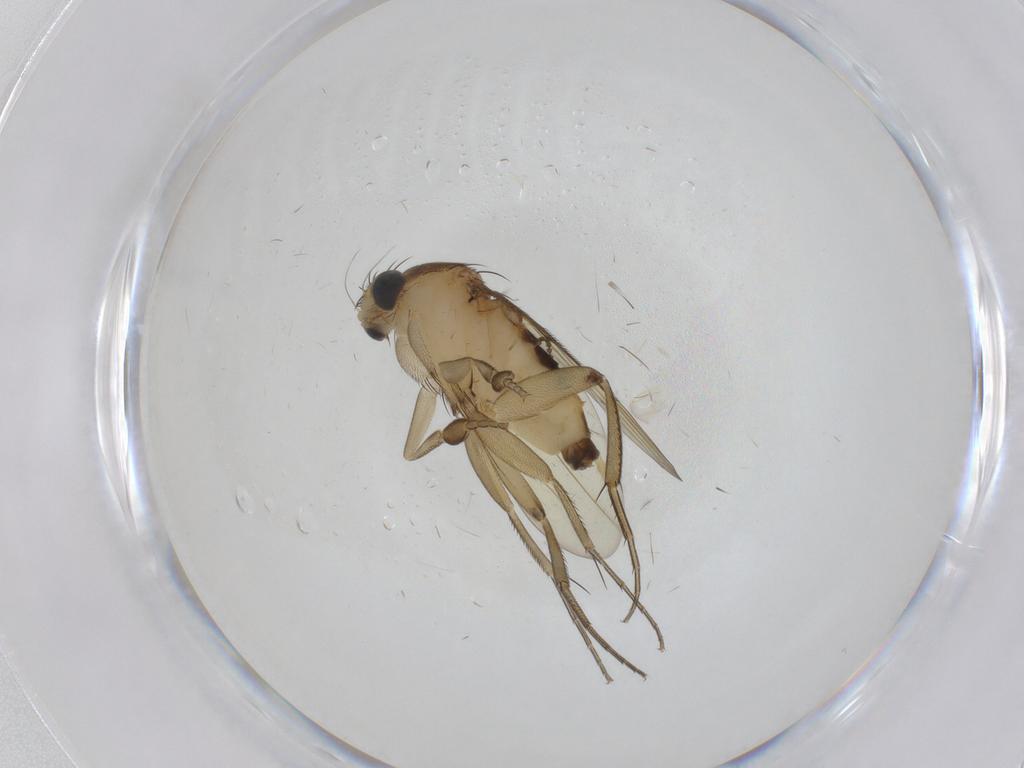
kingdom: Animalia
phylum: Arthropoda
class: Insecta
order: Diptera
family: Phoridae
